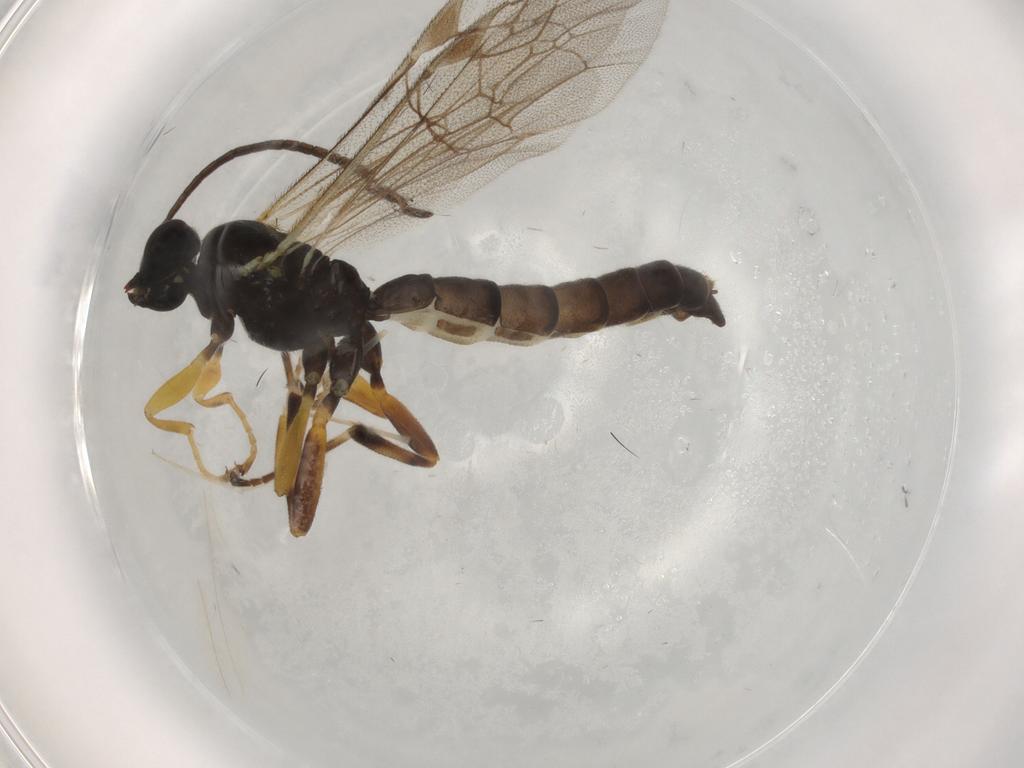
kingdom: Animalia
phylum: Arthropoda
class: Insecta
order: Hymenoptera
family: Ichneumonidae
